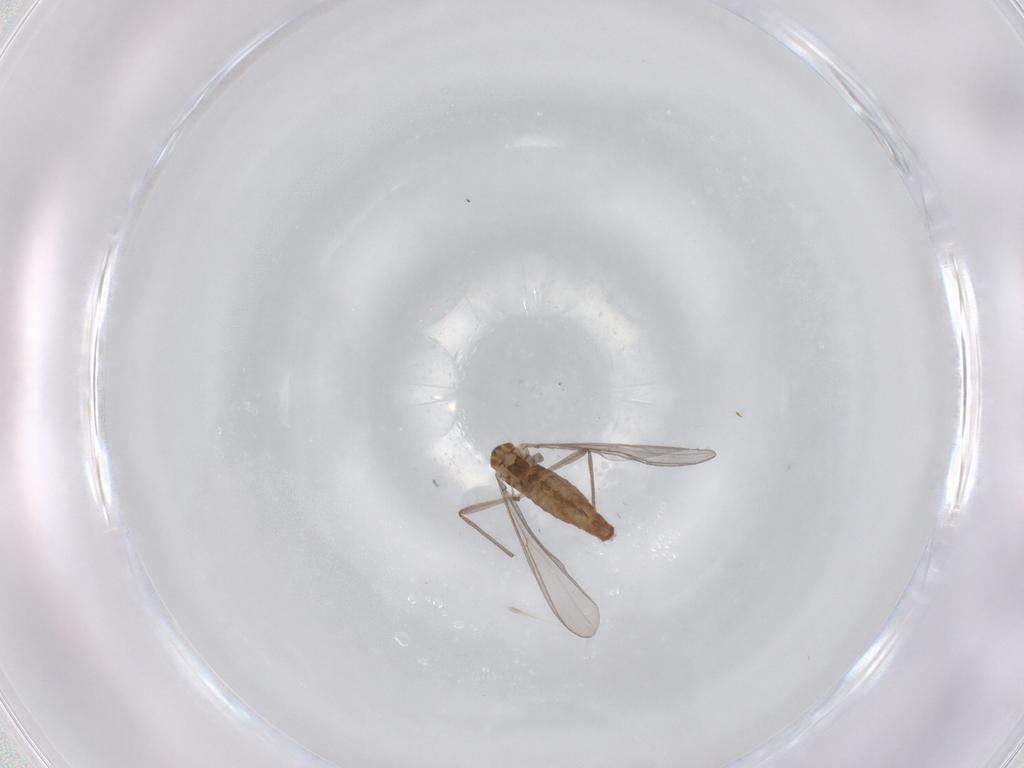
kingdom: Animalia
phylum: Arthropoda
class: Insecta
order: Diptera
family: Chironomidae
